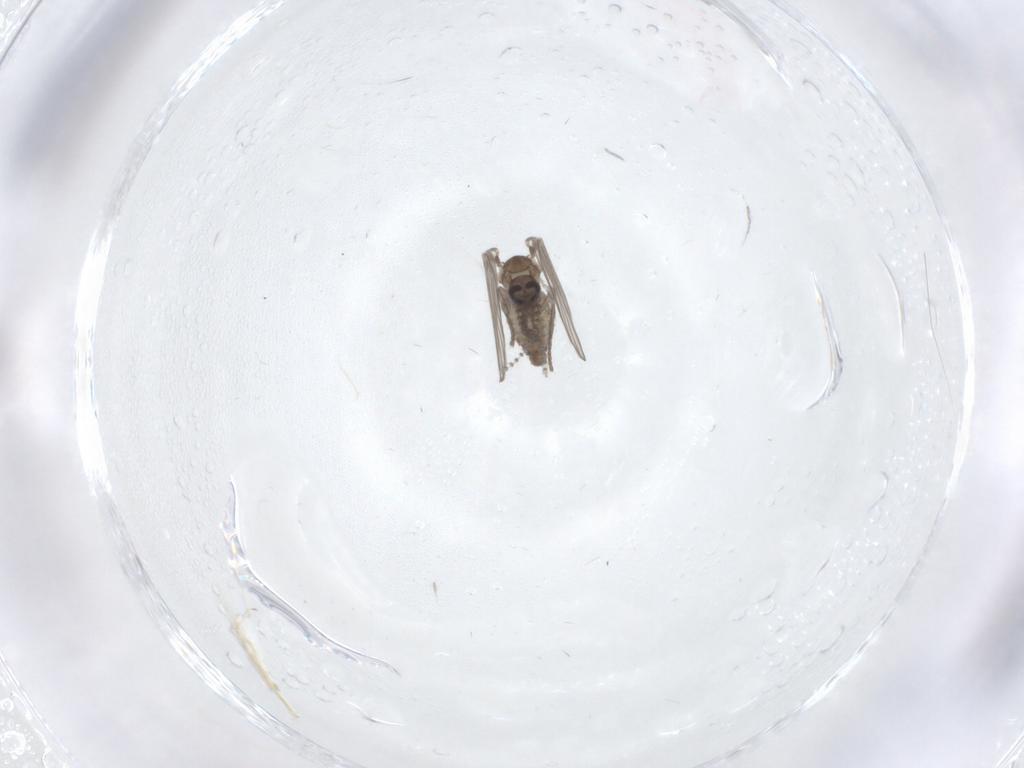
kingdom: Animalia
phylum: Arthropoda
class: Insecta
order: Diptera
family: Psychodidae
